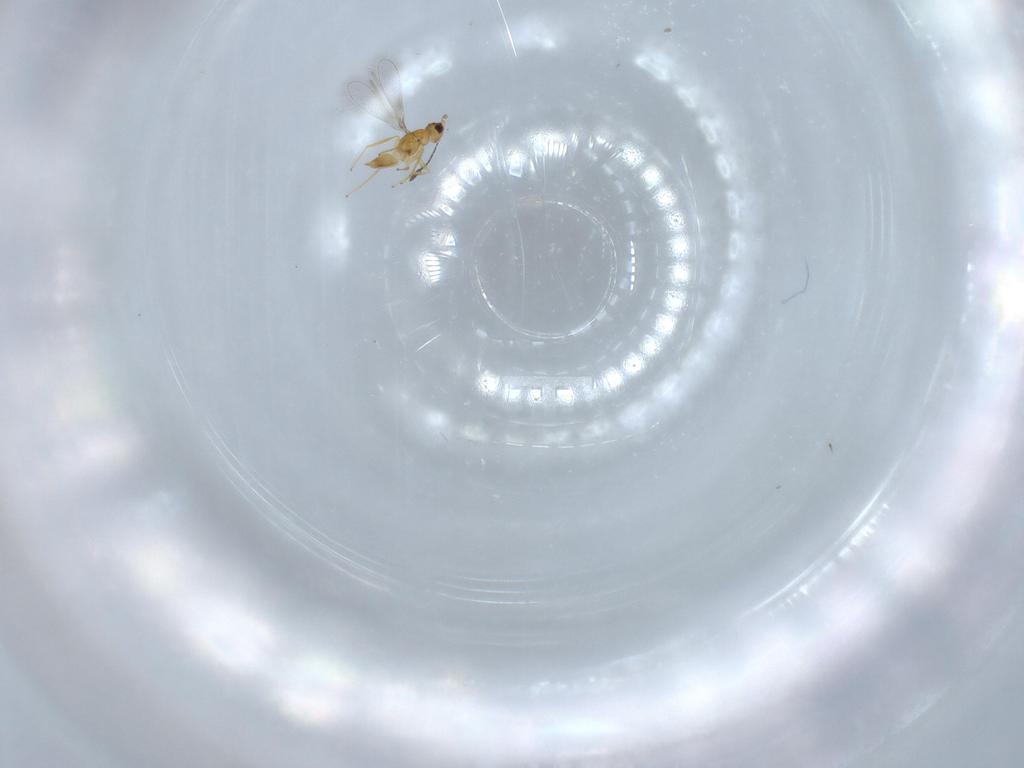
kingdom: Animalia
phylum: Arthropoda
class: Insecta
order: Hymenoptera
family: Mymaridae
